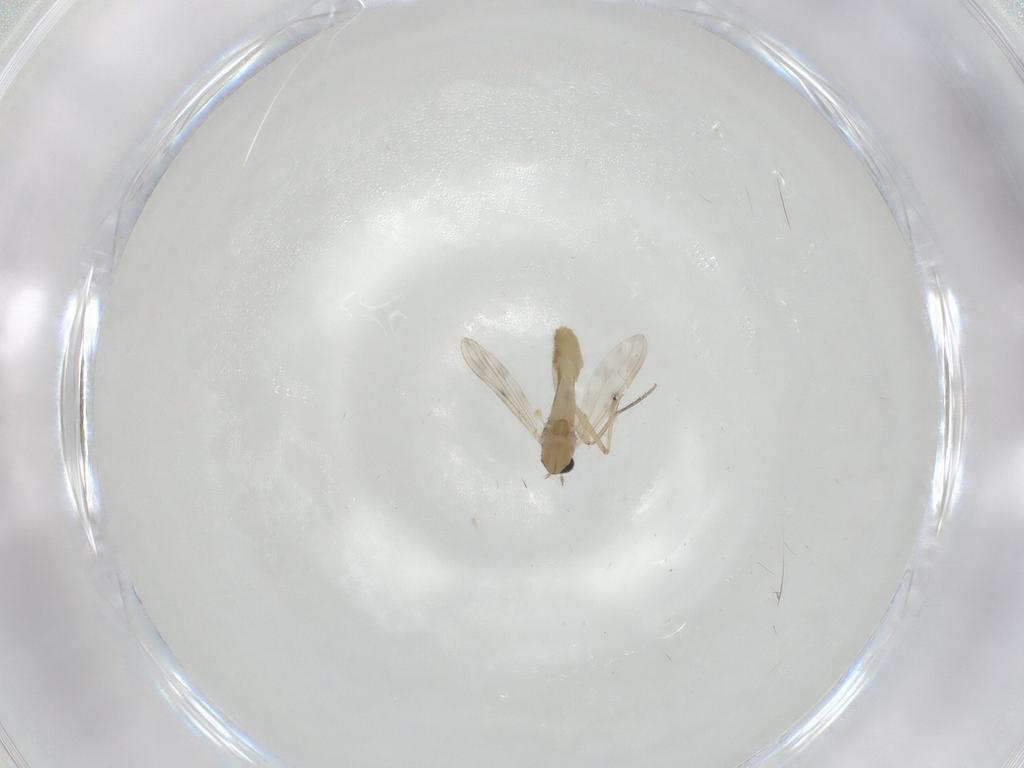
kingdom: Animalia
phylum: Arthropoda
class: Insecta
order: Diptera
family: Chironomidae
